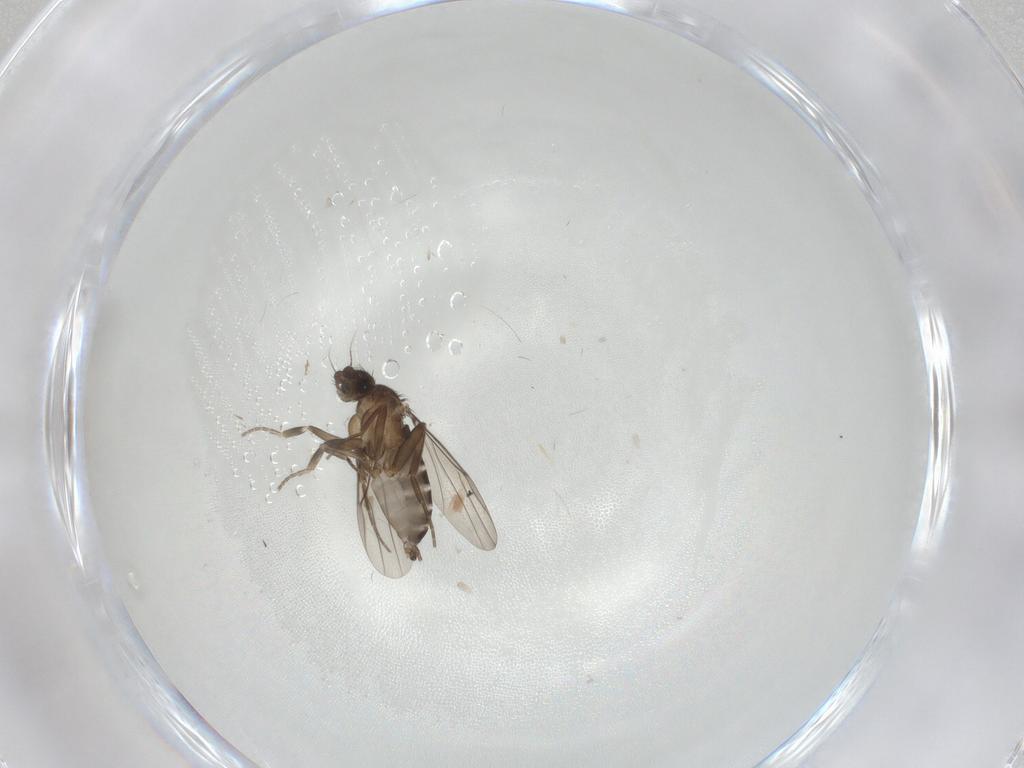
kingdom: Animalia
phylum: Arthropoda
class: Insecta
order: Diptera
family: Phoridae
